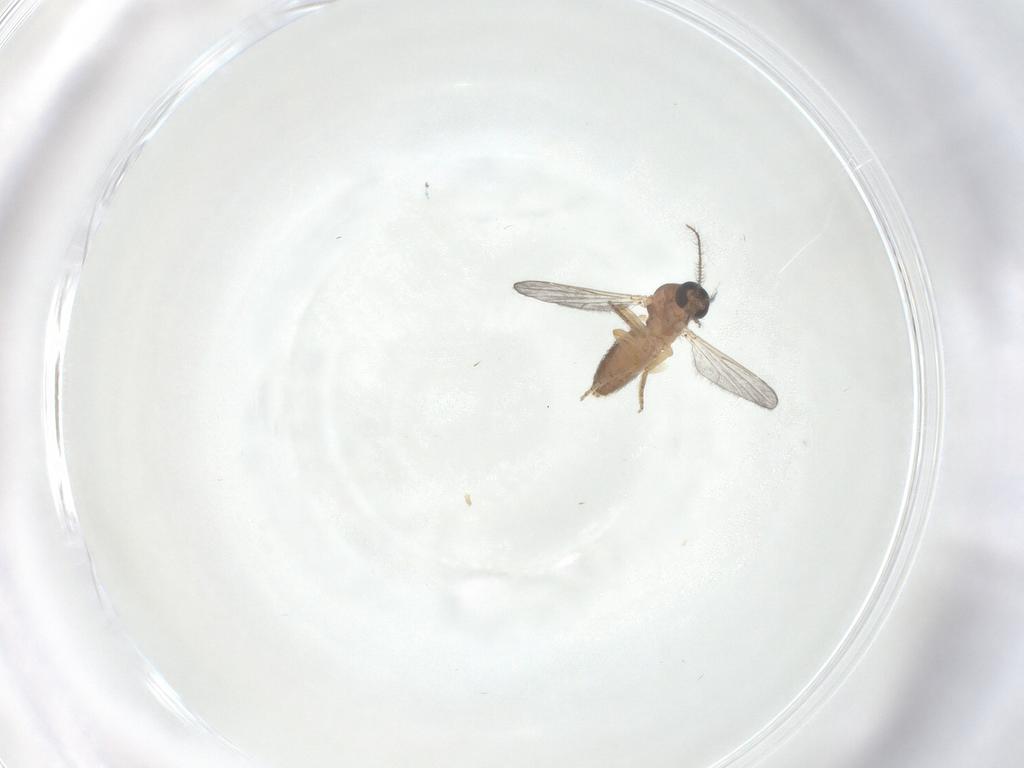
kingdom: Animalia
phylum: Arthropoda
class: Insecta
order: Diptera
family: Ceratopogonidae
